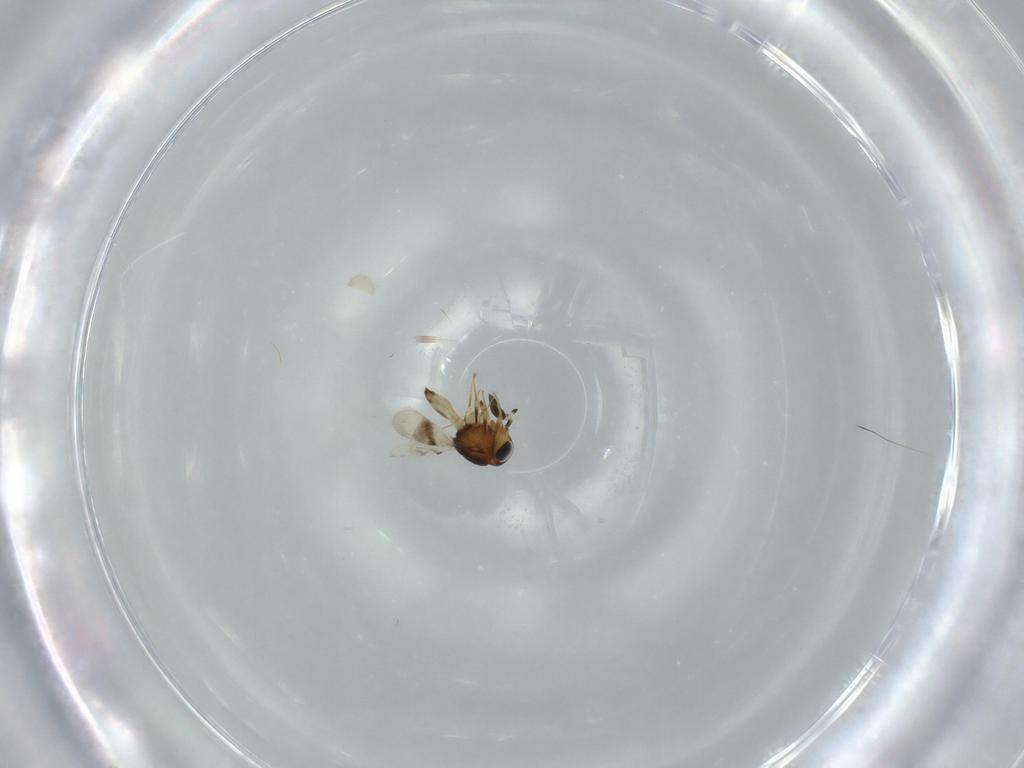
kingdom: Animalia
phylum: Arthropoda
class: Arachnida
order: Araneae
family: Pholcidae
